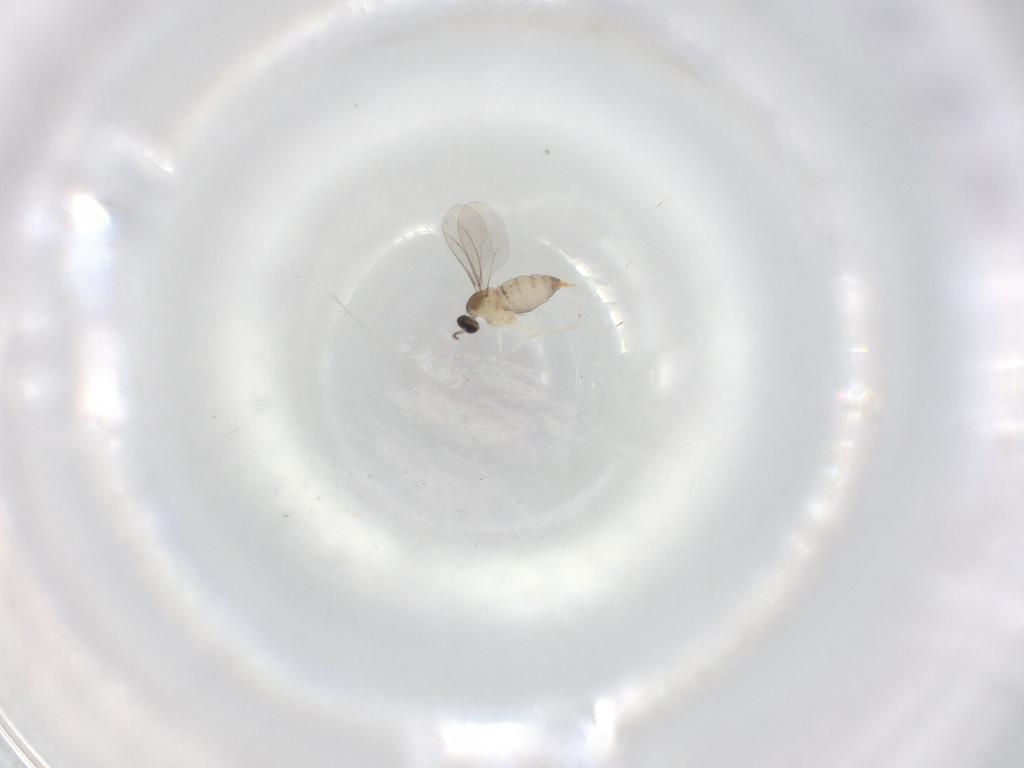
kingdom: Animalia
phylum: Arthropoda
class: Insecta
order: Diptera
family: Cecidomyiidae
